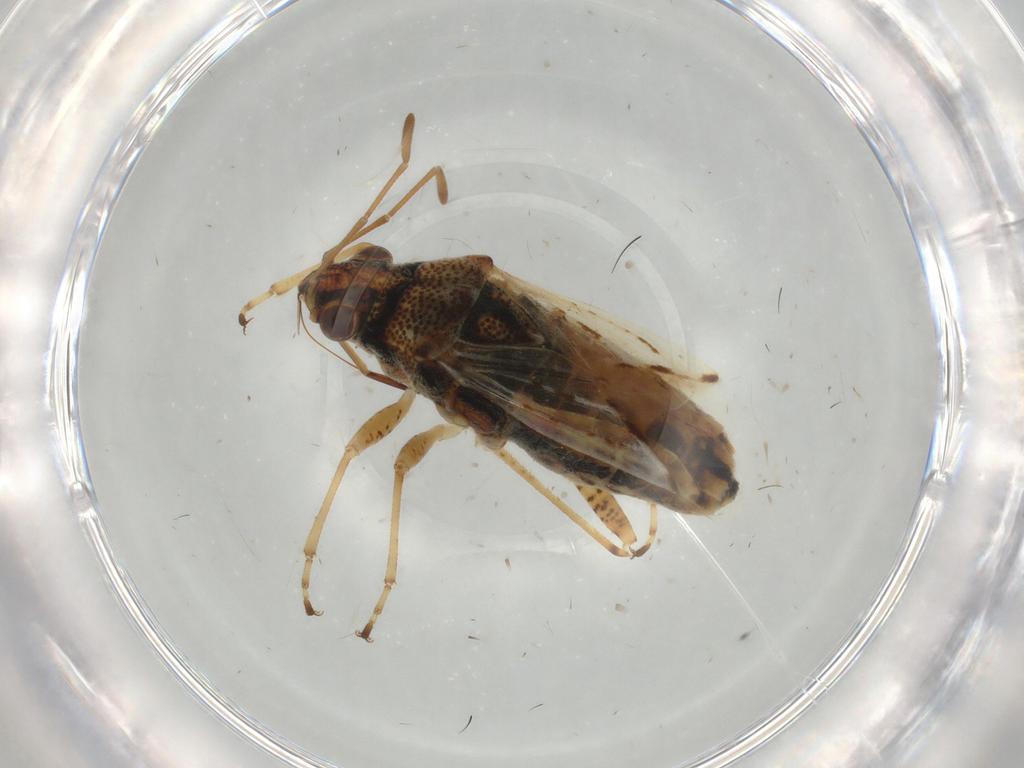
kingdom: Animalia
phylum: Arthropoda
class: Insecta
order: Hemiptera
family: Lygaeidae
